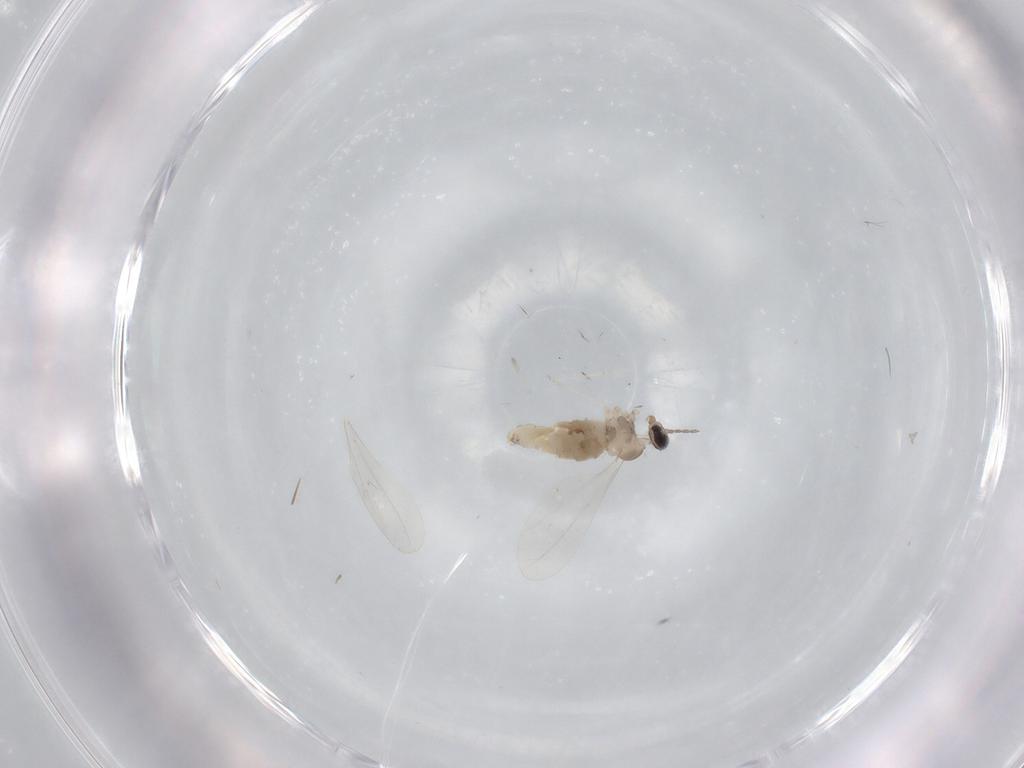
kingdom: Animalia
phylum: Arthropoda
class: Insecta
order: Diptera
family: Cecidomyiidae
